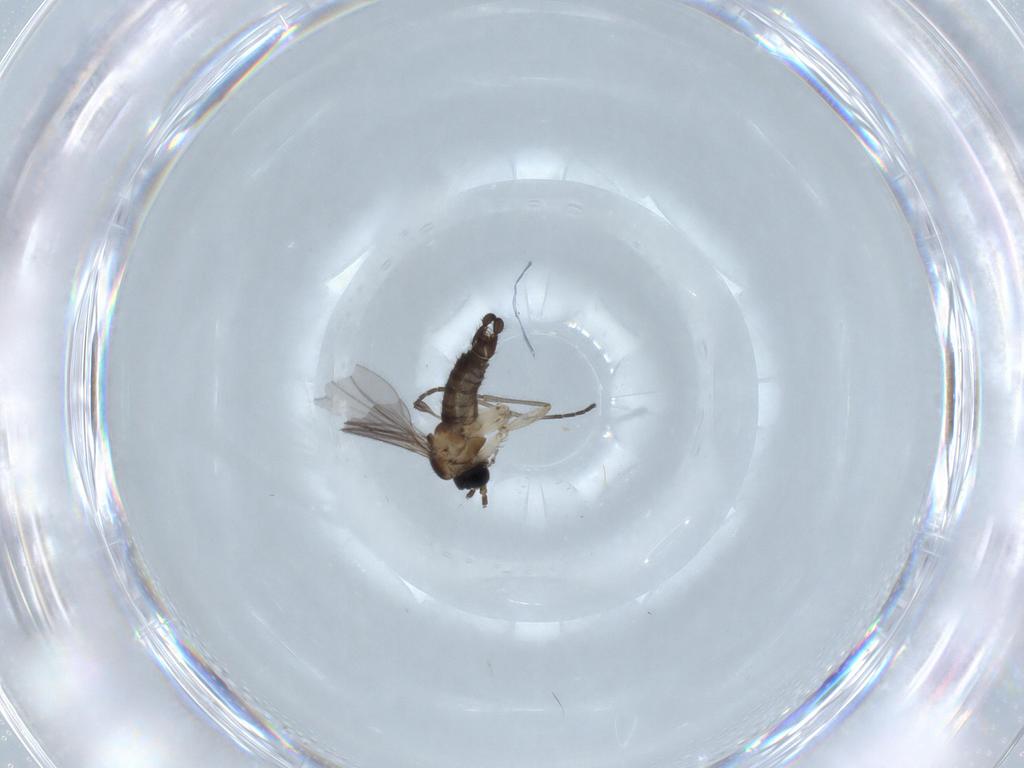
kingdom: Animalia
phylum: Arthropoda
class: Insecta
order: Diptera
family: Sciaridae
